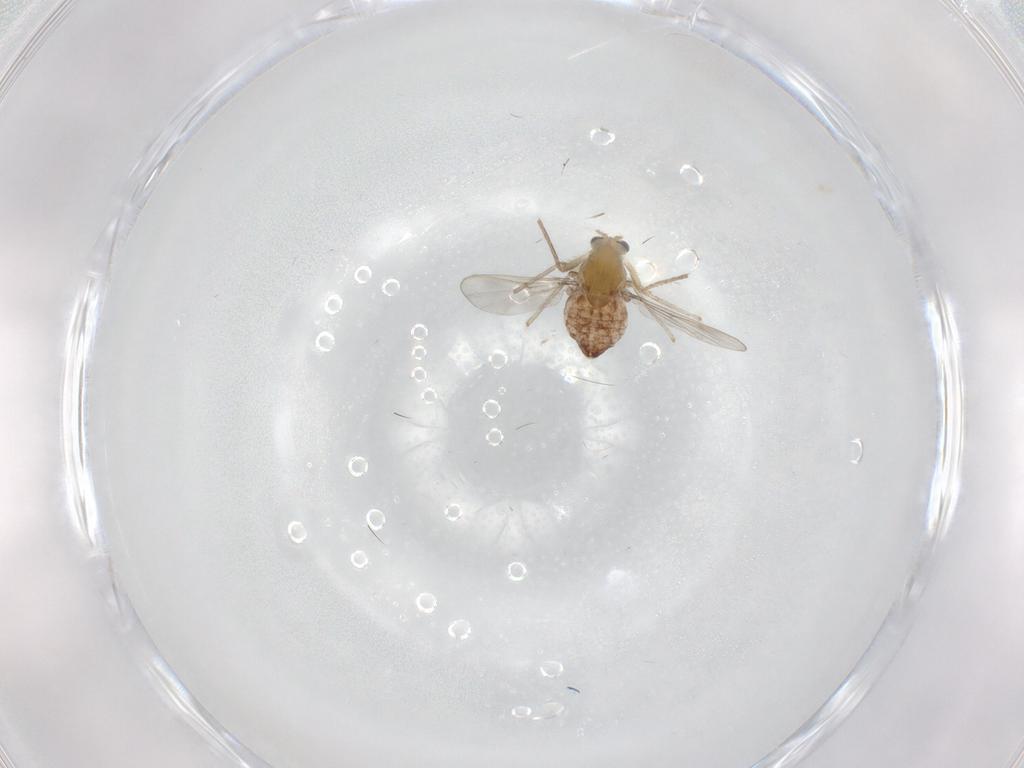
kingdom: Animalia
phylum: Arthropoda
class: Insecta
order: Diptera
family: Chironomidae
